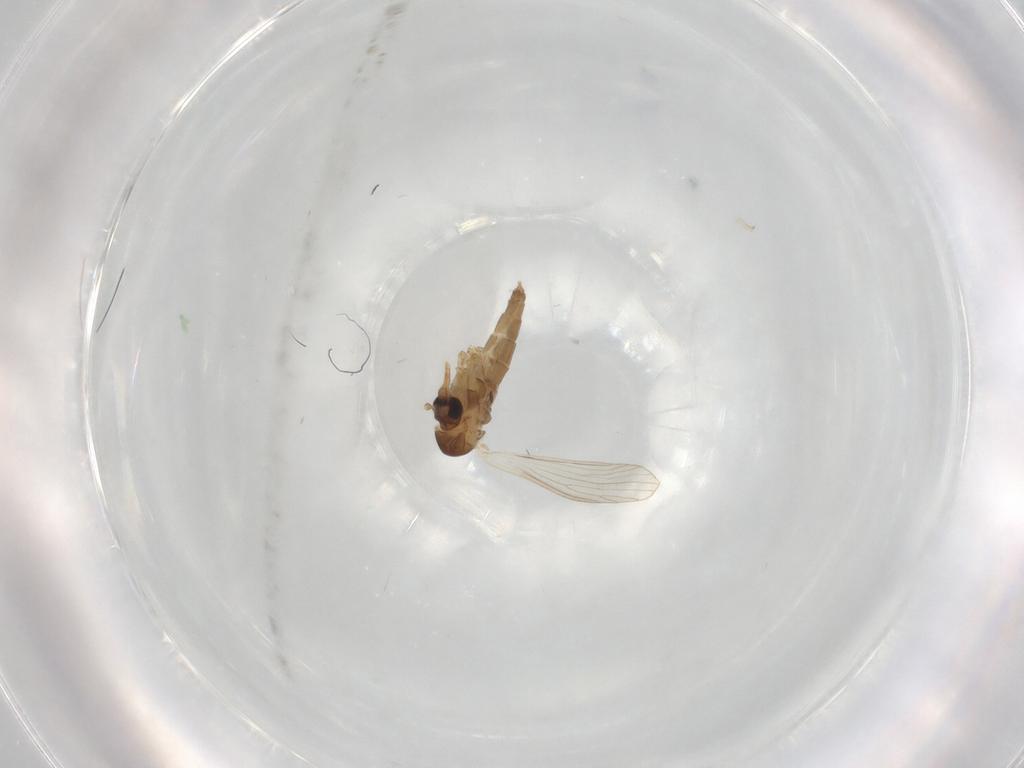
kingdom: Animalia
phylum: Arthropoda
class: Insecta
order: Diptera
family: Psychodidae
